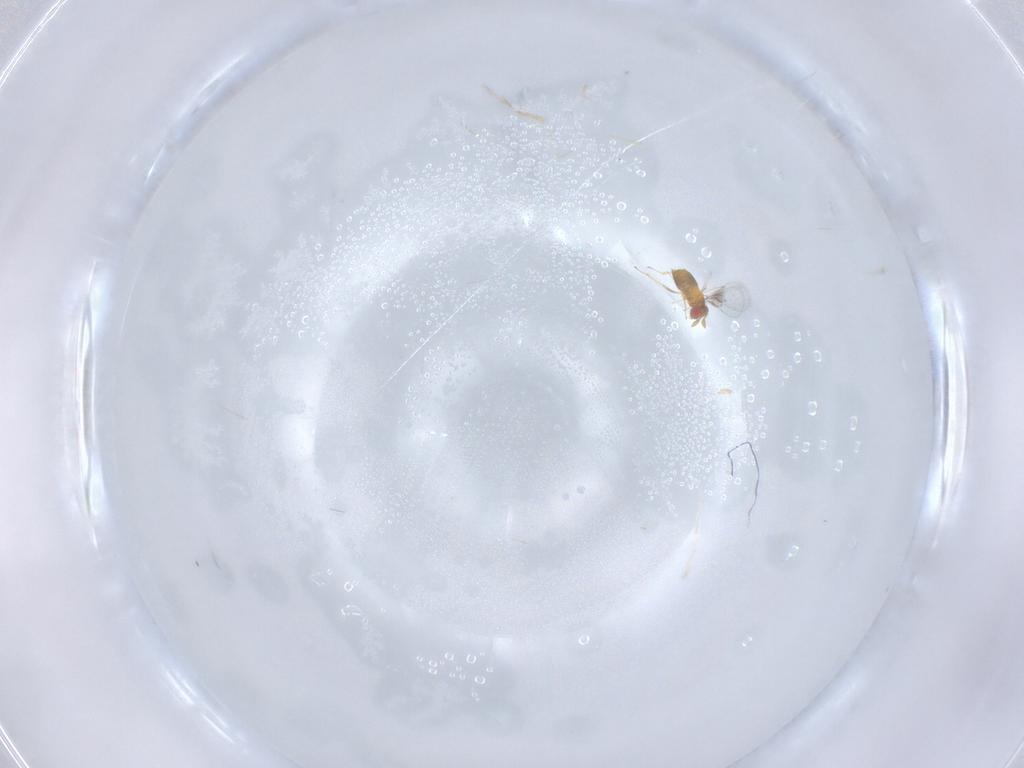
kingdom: Animalia
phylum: Arthropoda
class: Insecta
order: Hymenoptera
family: Trichogrammatidae
